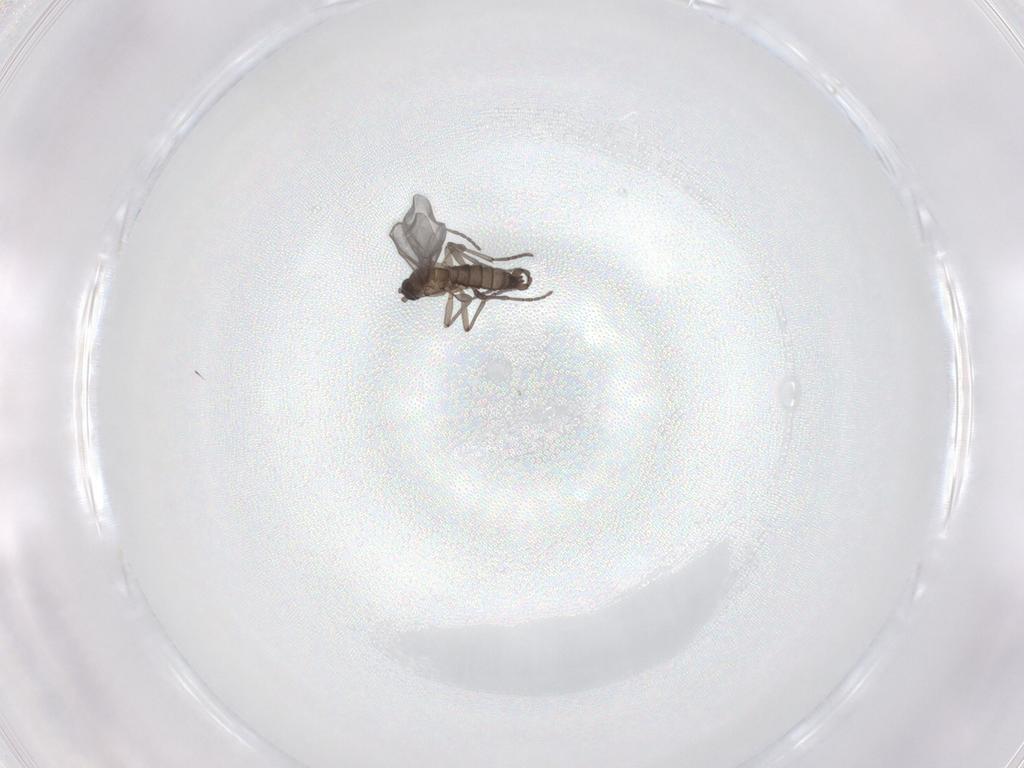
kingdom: Animalia
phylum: Arthropoda
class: Insecta
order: Diptera
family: Sciaridae
